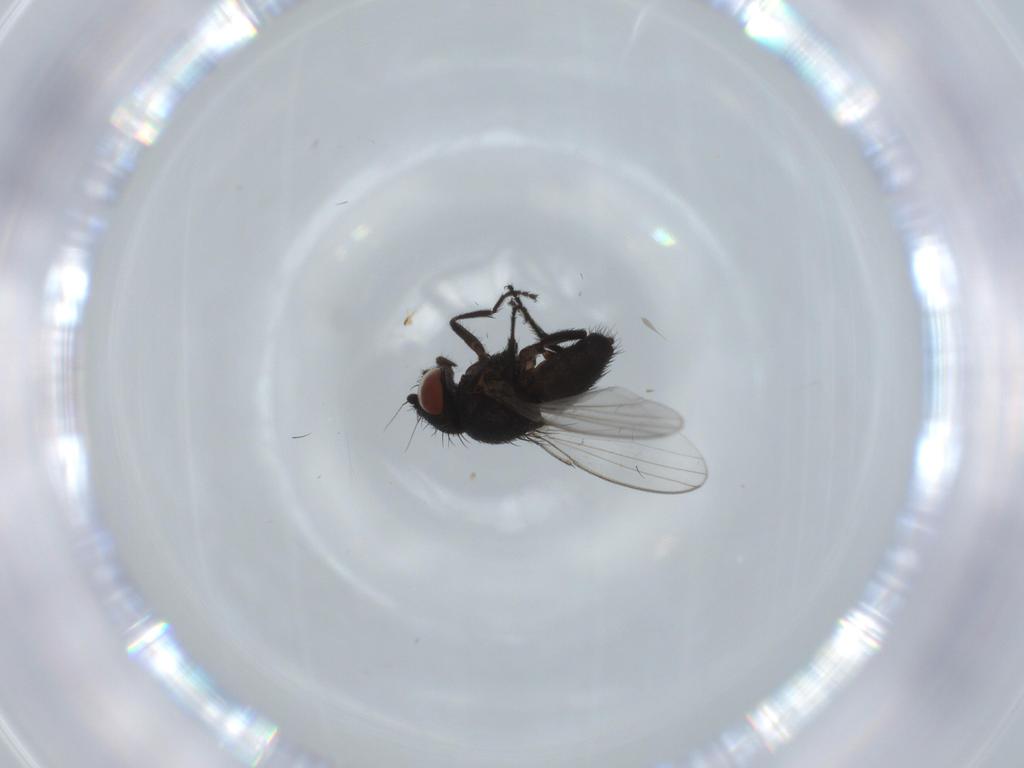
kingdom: Animalia
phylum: Arthropoda
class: Insecta
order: Diptera
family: Milichiidae
